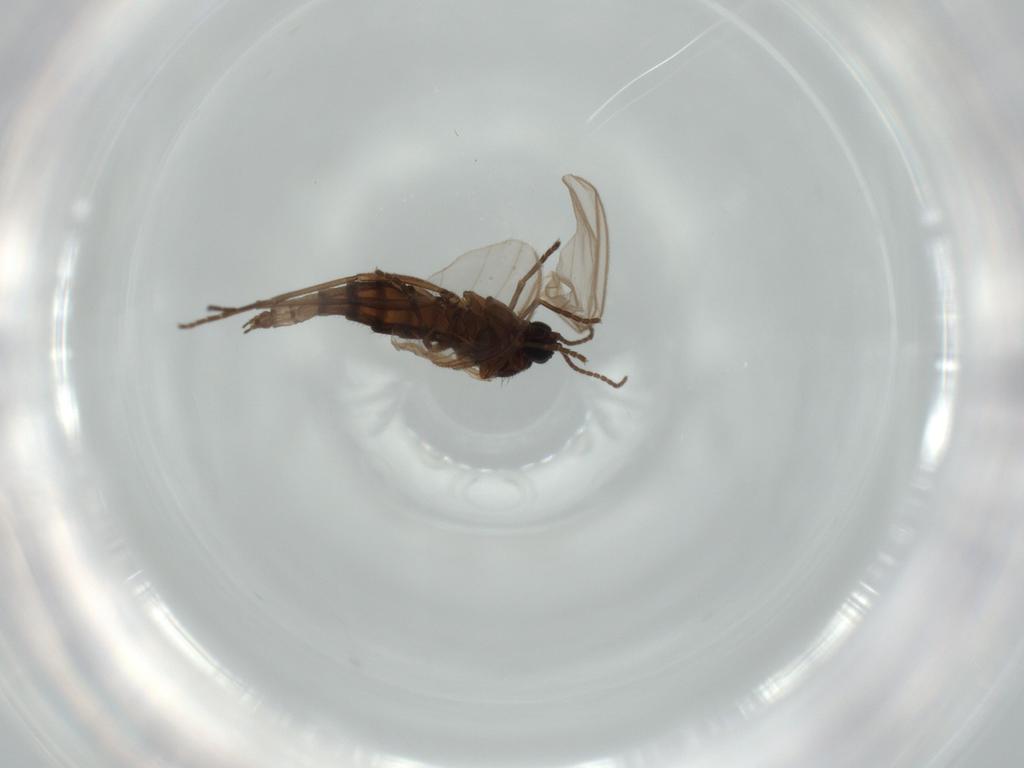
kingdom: Animalia
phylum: Arthropoda
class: Insecta
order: Diptera
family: Sciaridae
